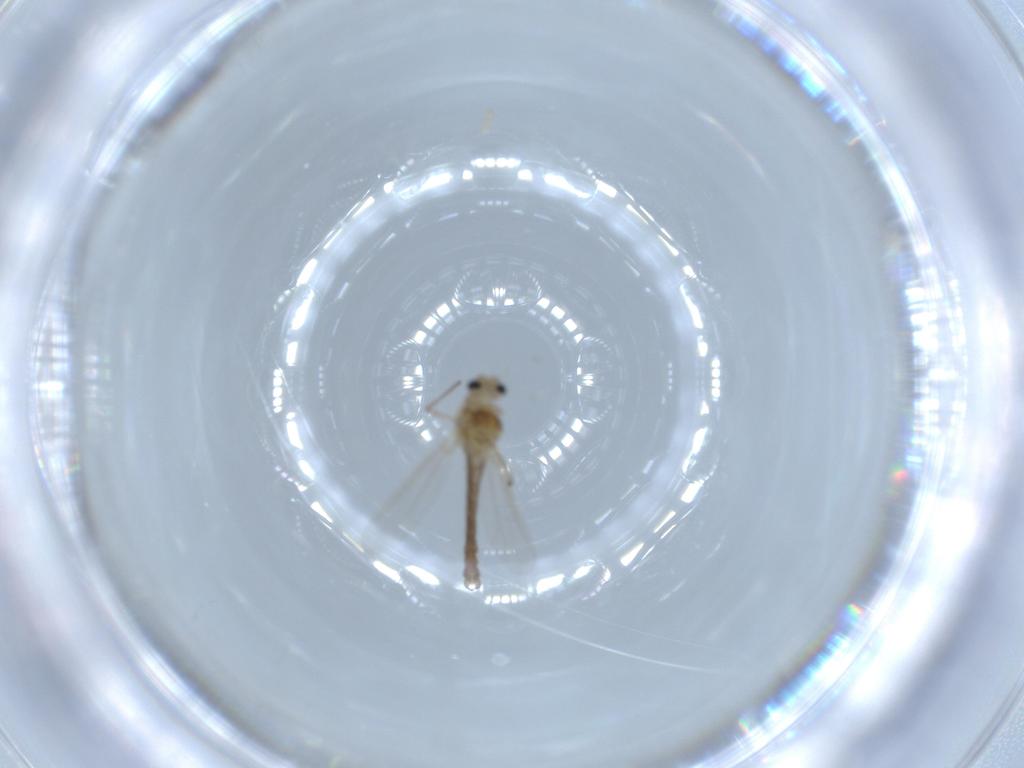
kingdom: Animalia
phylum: Arthropoda
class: Insecta
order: Diptera
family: Chironomidae
